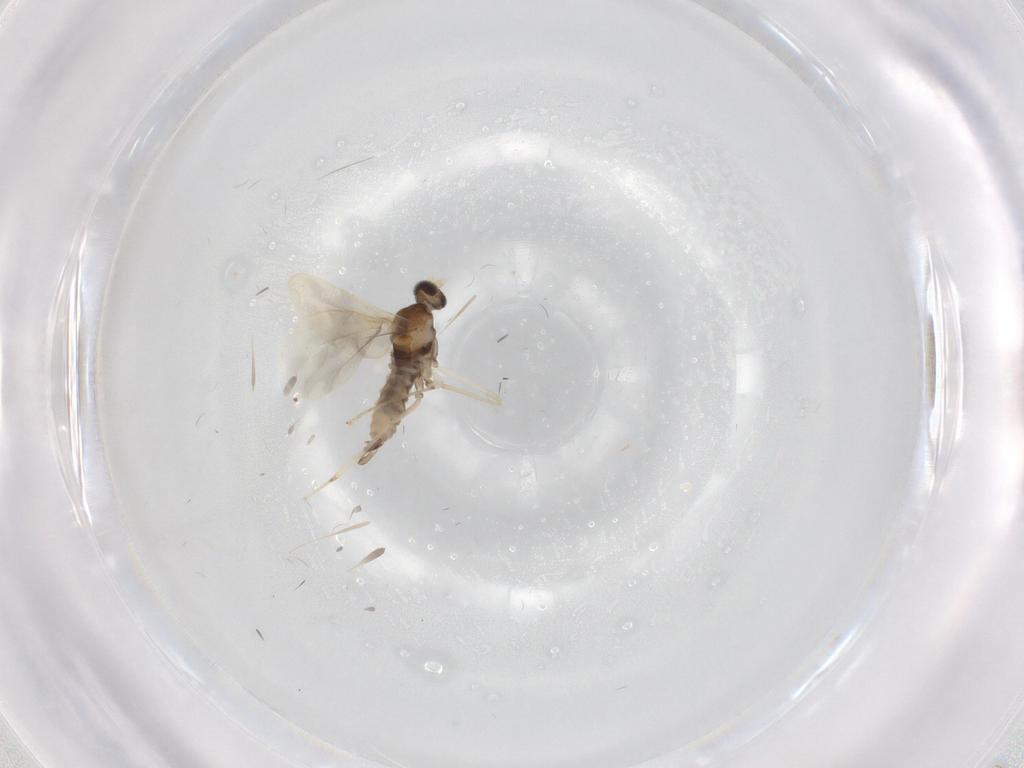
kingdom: Animalia
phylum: Arthropoda
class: Insecta
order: Diptera
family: Cecidomyiidae
